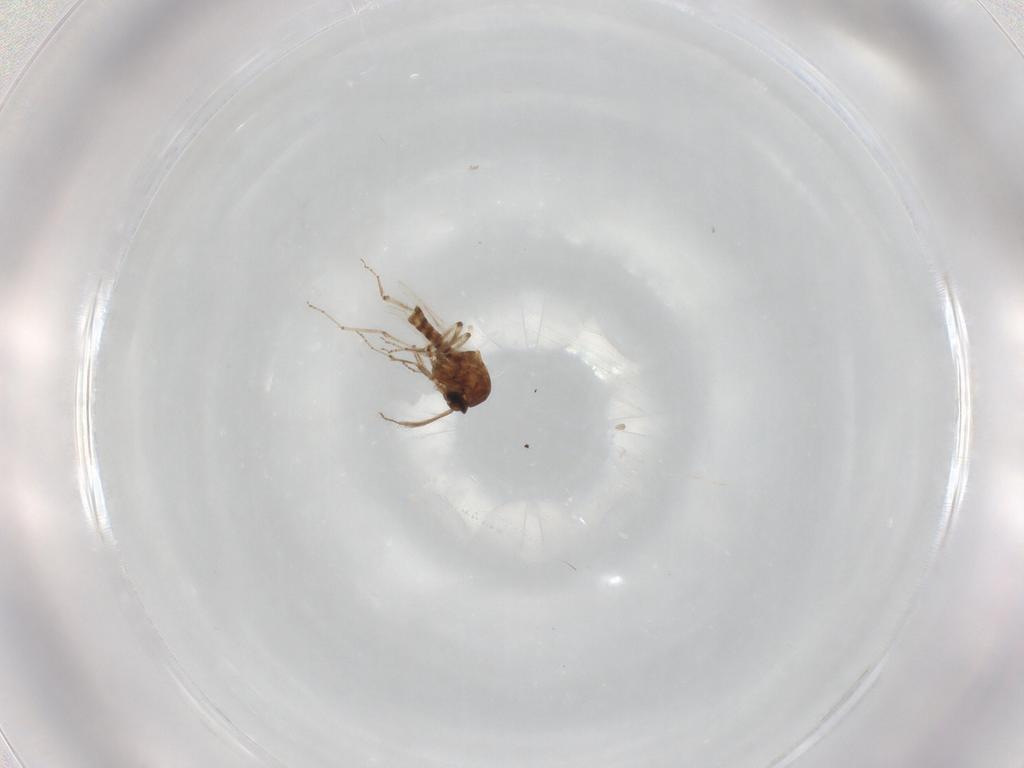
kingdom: Animalia
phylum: Arthropoda
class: Insecta
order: Diptera
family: Ceratopogonidae
